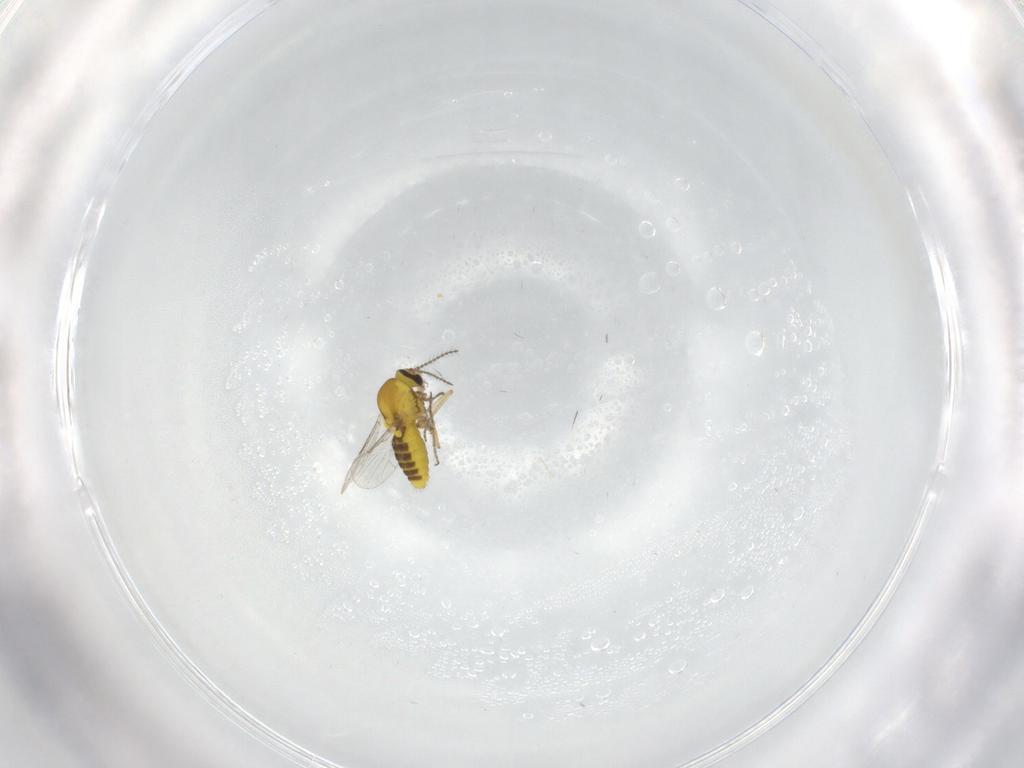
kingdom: Animalia
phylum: Arthropoda
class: Insecta
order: Diptera
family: Ceratopogonidae
